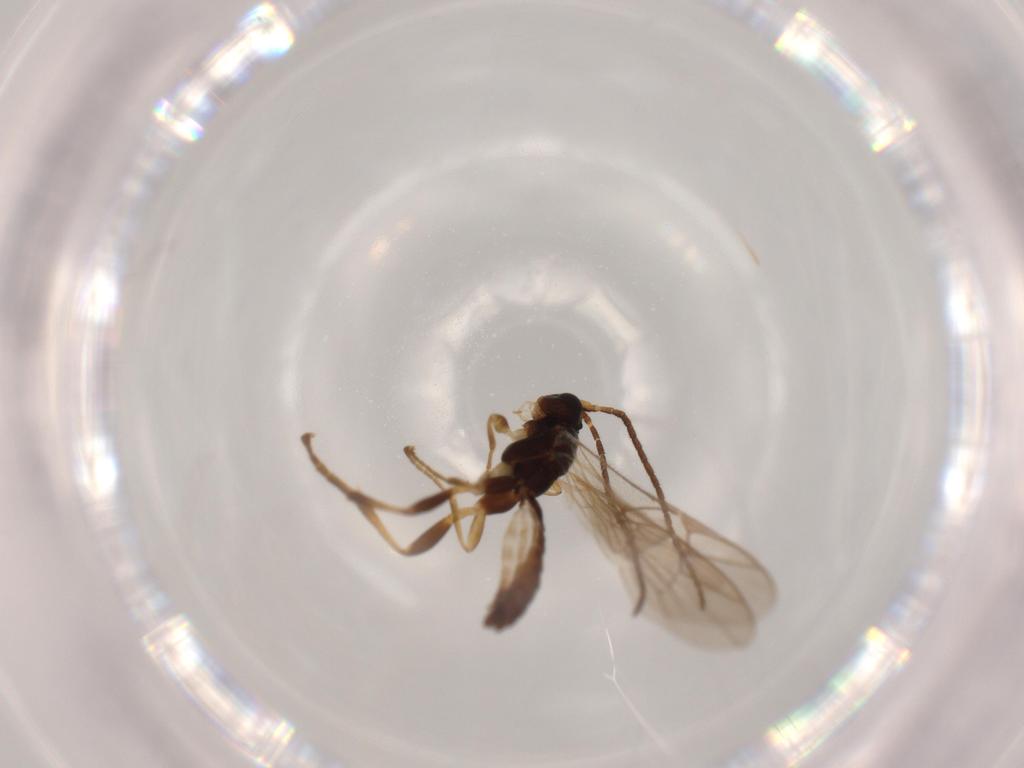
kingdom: Animalia
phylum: Arthropoda
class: Insecta
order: Hymenoptera
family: Ichneumonidae
